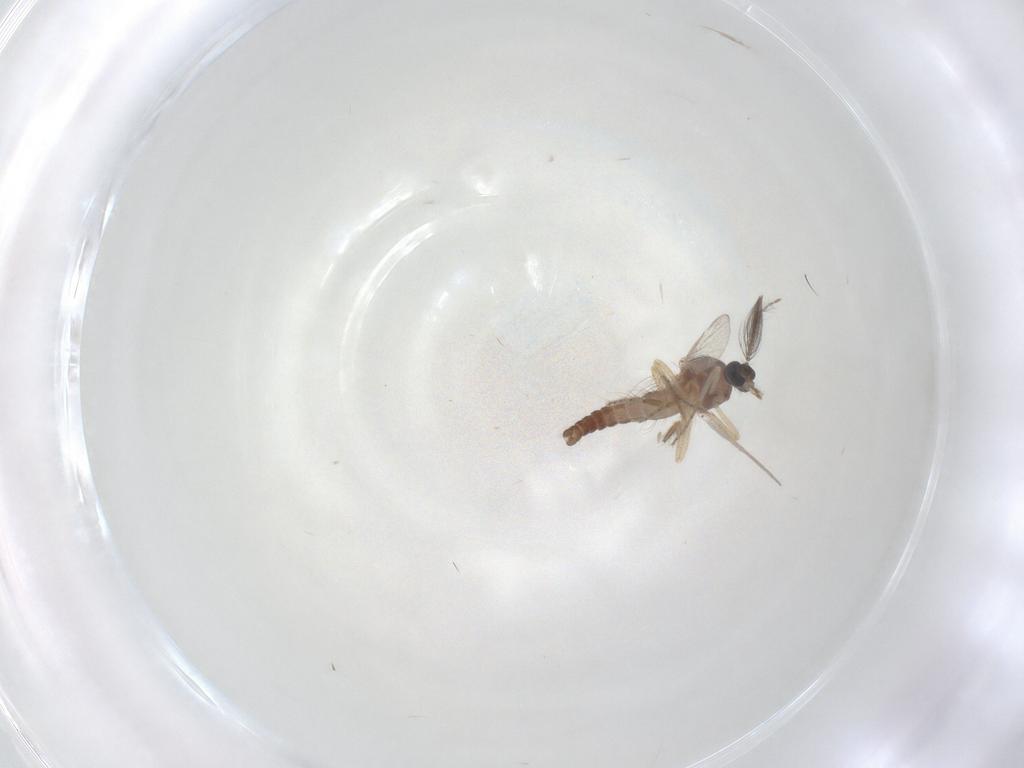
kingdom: Animalia
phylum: Arthropoda
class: Insecta
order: Diptera
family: Ceratopogonidae
